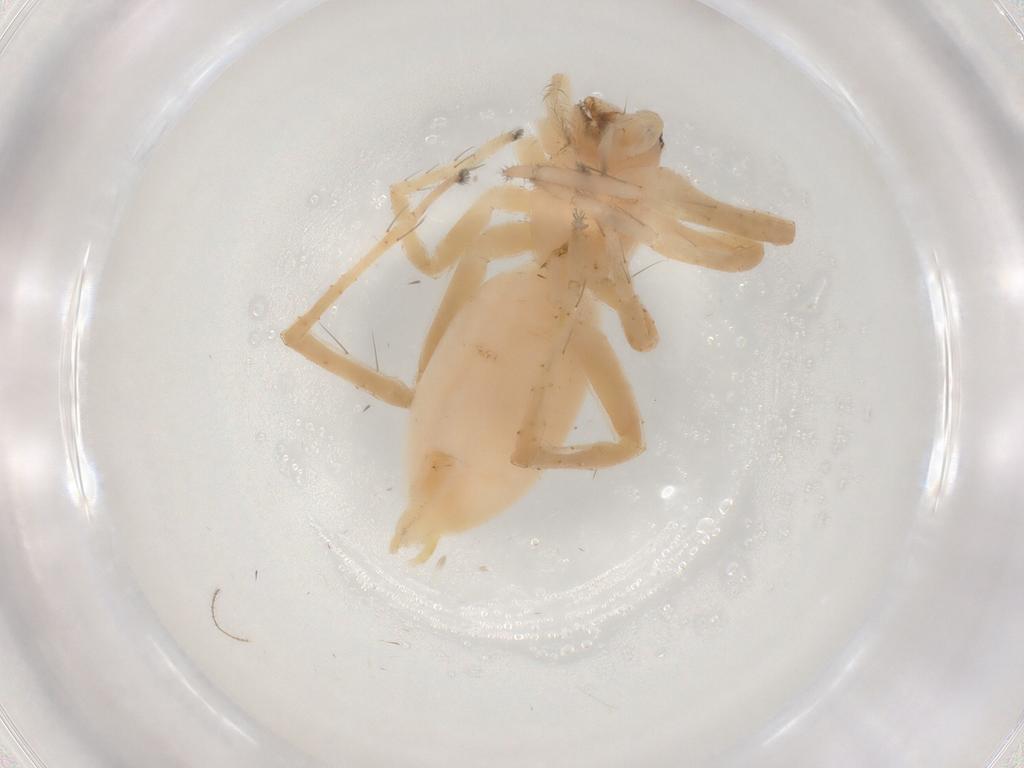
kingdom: Animalia
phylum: Arthropoda
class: Arachnida
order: Araneae
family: Anyphaenidae
